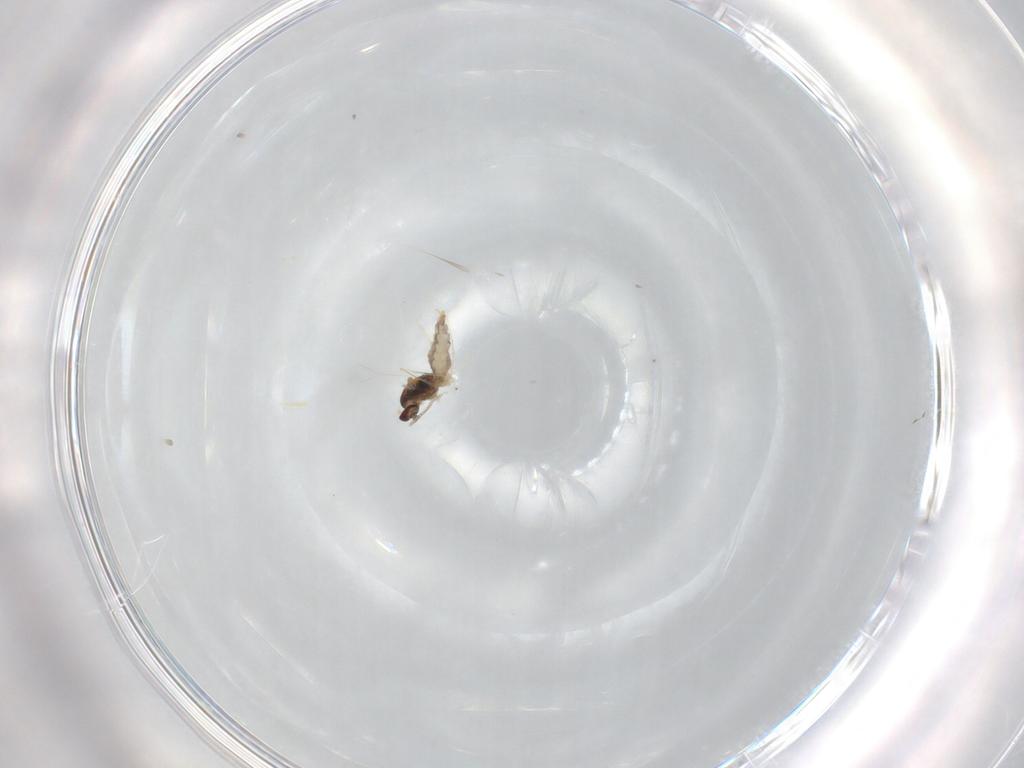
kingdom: Animalia
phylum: Arthropoda
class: Insecta
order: Diptera
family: Cecidomyiidae
